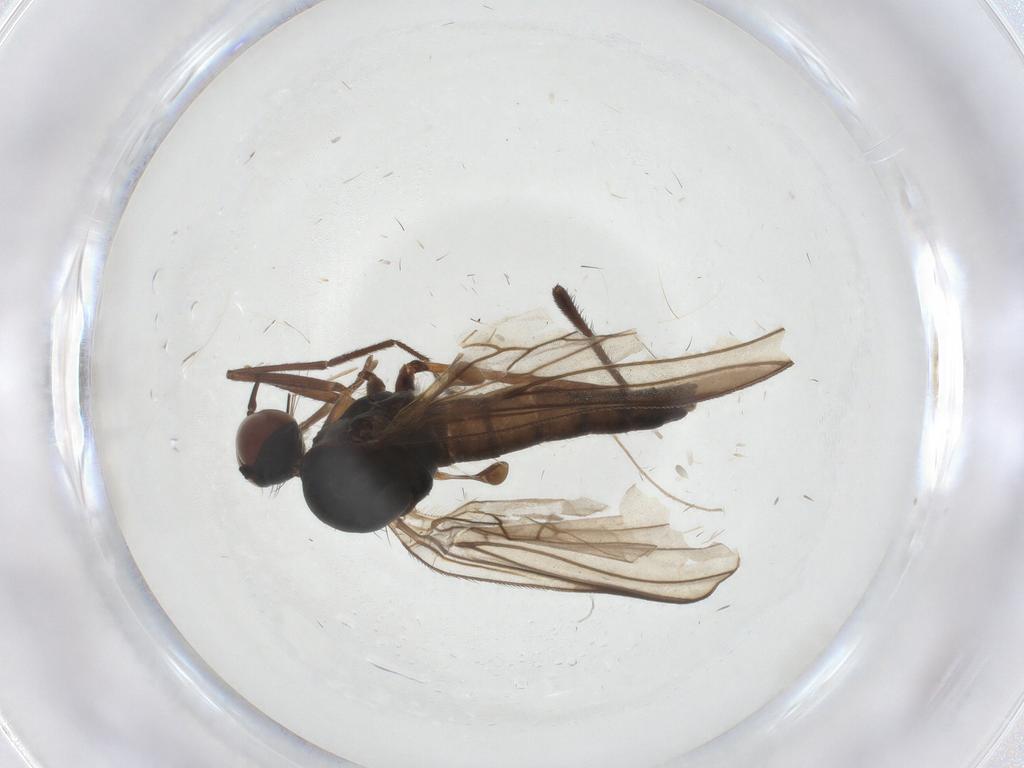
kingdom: Animalia
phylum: Arthropoda
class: Insecta
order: Diptera
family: Empididae
